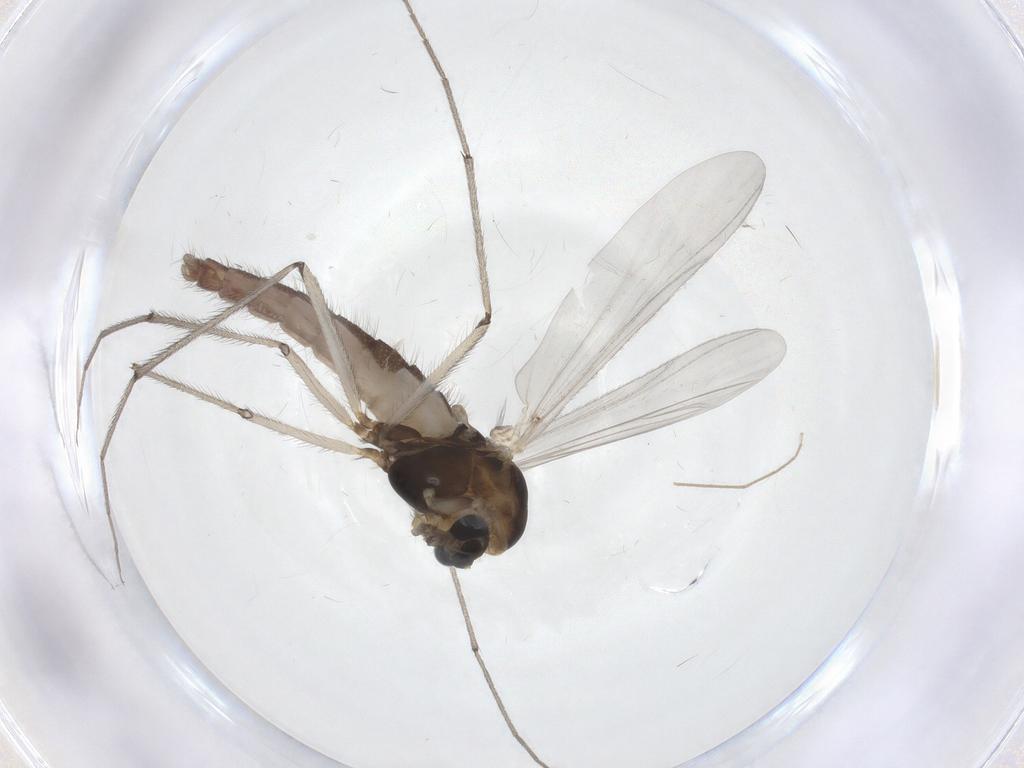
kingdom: Animalia
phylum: Arthropoda
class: Insecta
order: Diptera
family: Chironomidae
